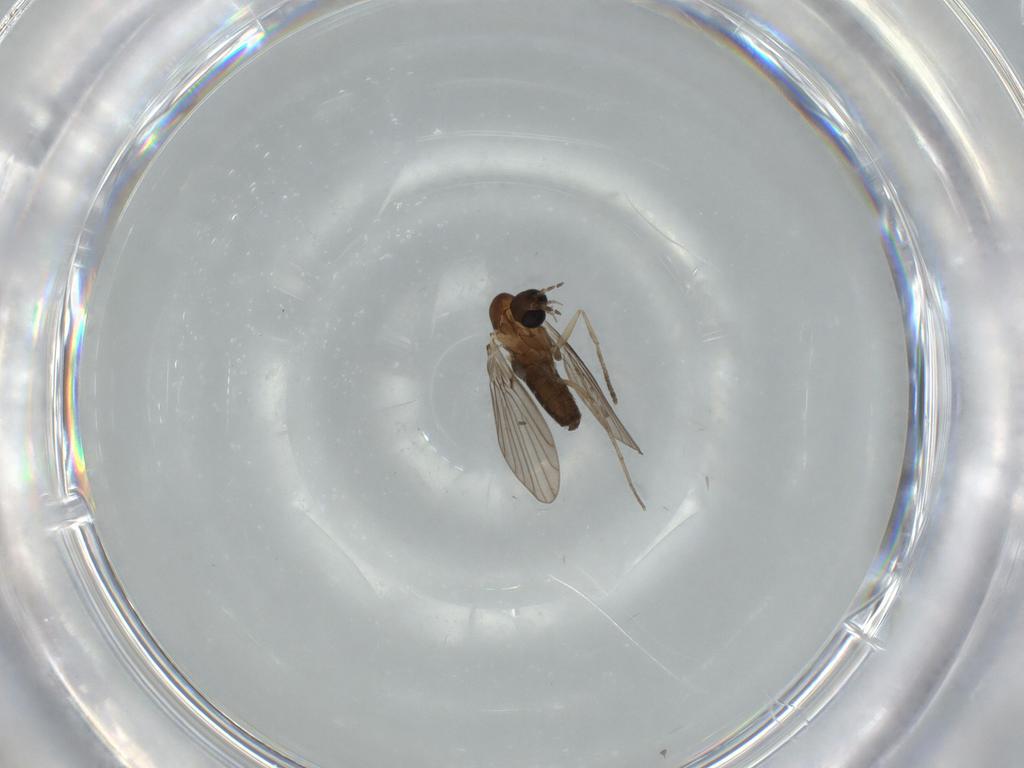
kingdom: Animalia
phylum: Arthropoda
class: Insecta
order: Diptera
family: Psychodidae
